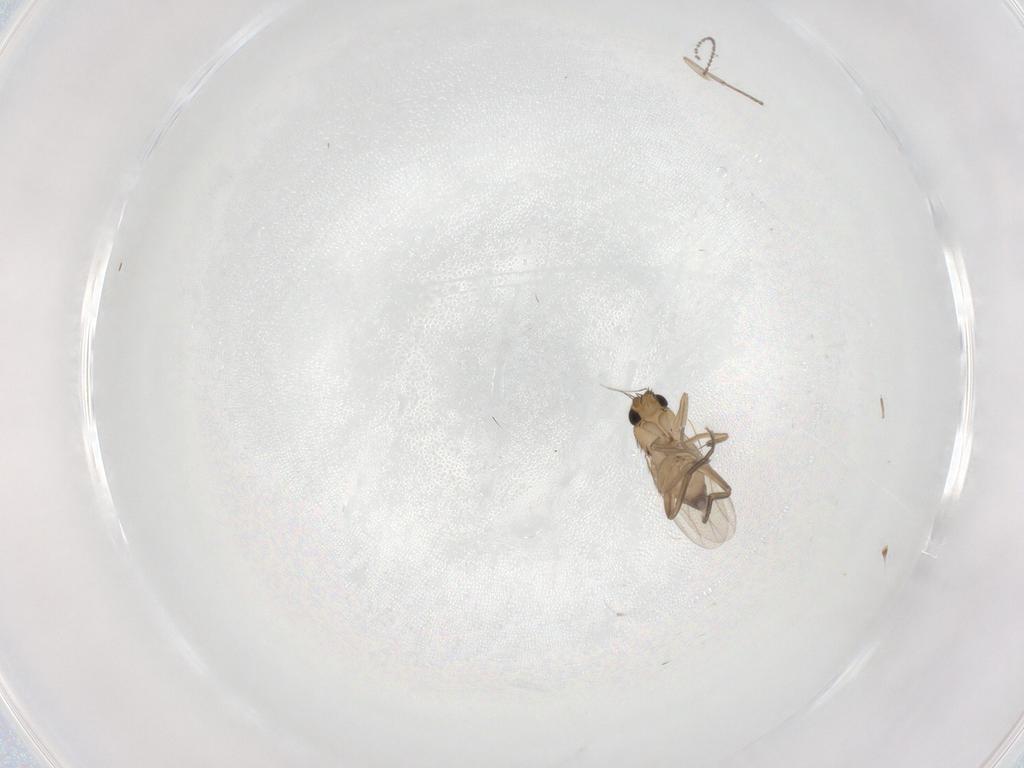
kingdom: Animalia
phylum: Arthropoda
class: Insecta
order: Diptera
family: Psychodidae
